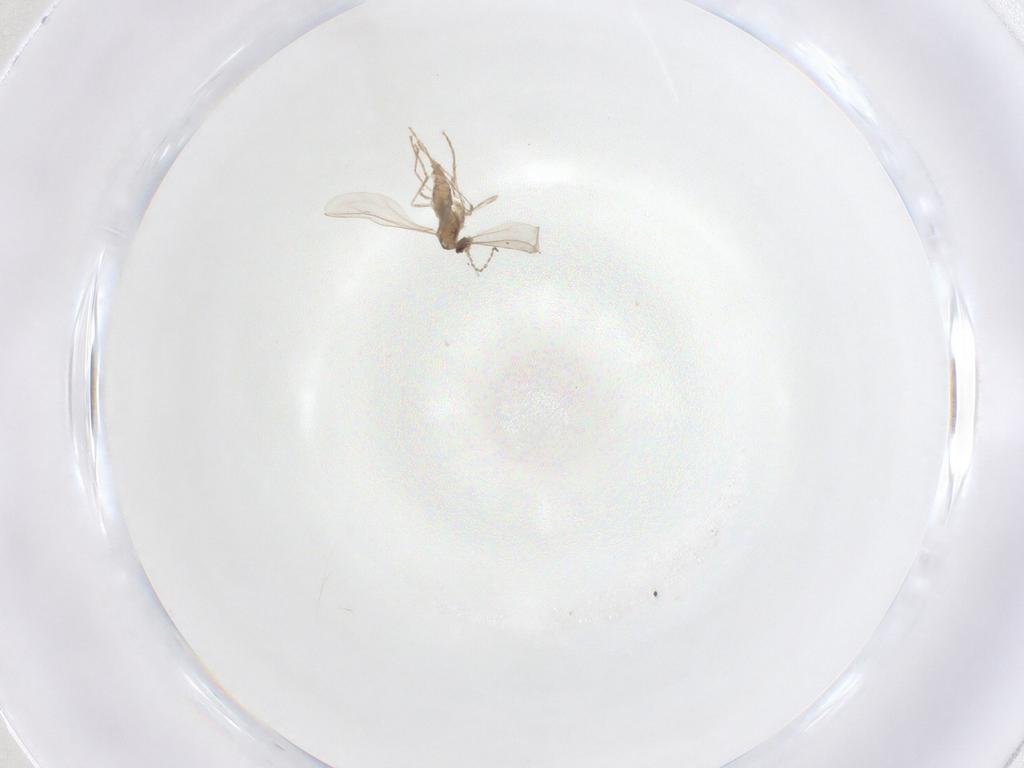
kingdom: Animalia
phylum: Arthropoda
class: Insecta
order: Diptera
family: Cecidomyiidae
